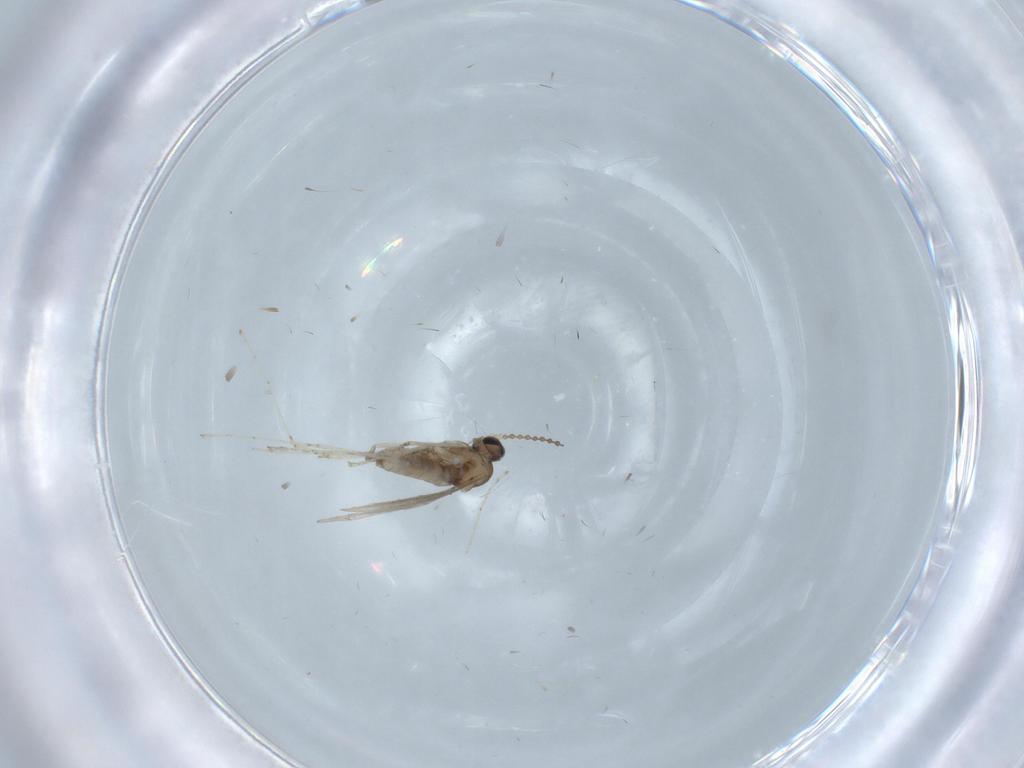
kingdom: Animalia
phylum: Arthropoda
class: Insecta
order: Diptera
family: Cecidomyiidae
